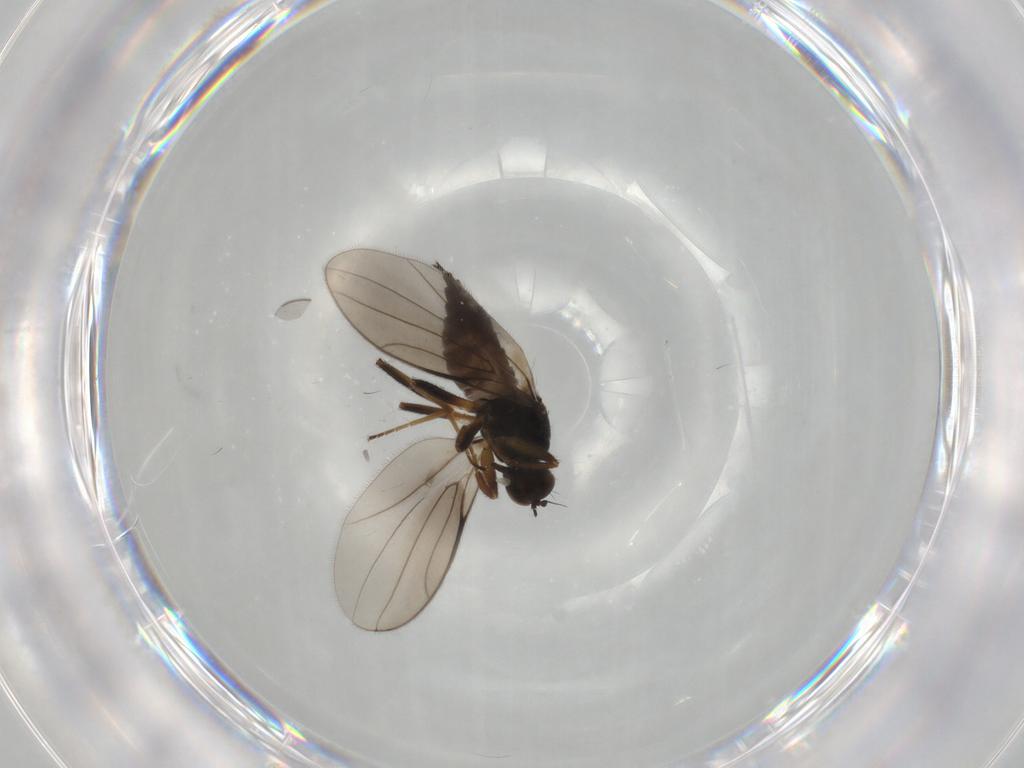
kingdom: Animalia
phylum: Arthropoda
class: Insecta
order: Diptera
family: Hybotidae
